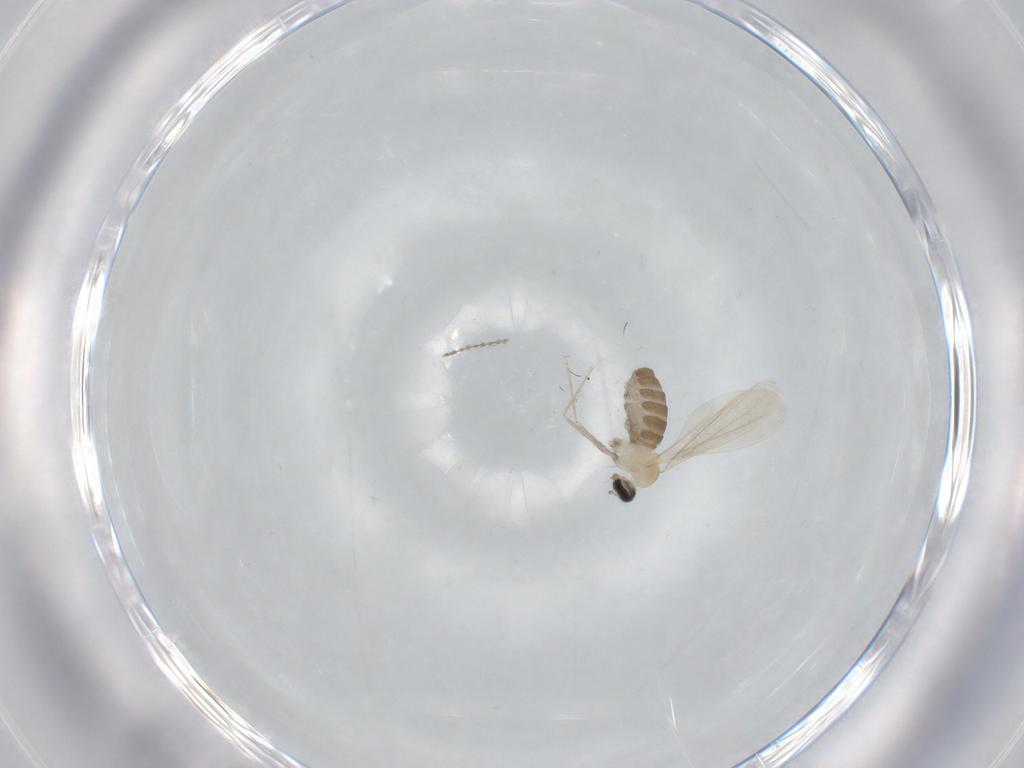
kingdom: Animalia
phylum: Arthropoda
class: Insecta
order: Diptera
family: Cecidomyiidae
